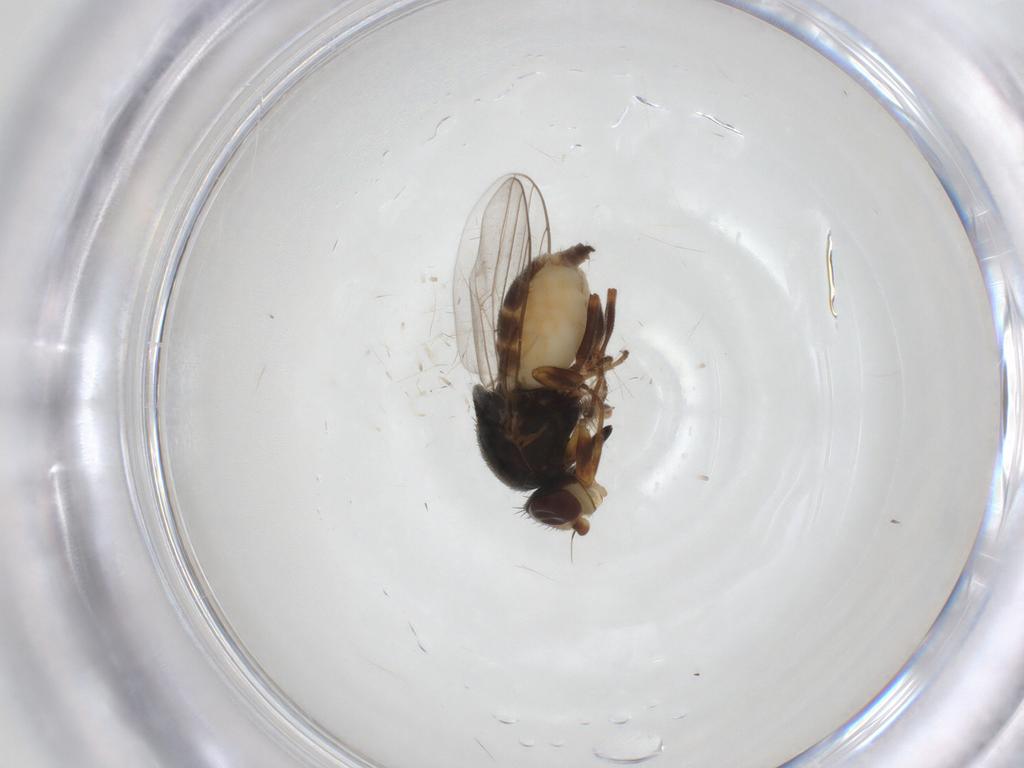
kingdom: Animalia
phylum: Arthropoda
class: Insecta
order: Diptera
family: Chloropidae
